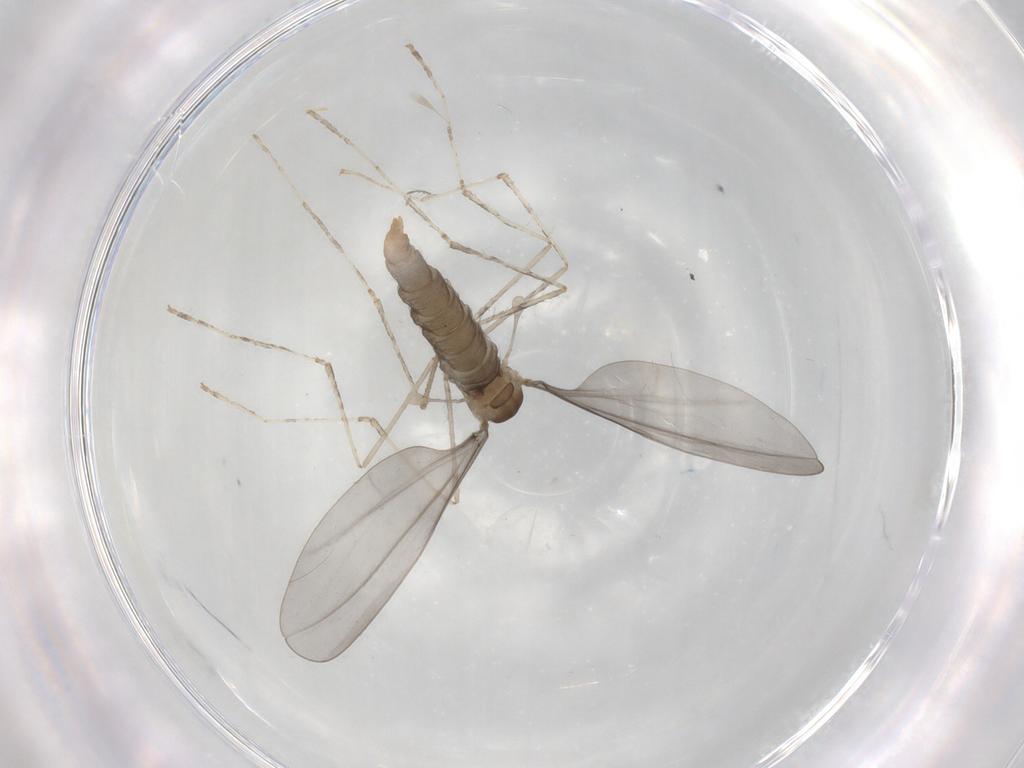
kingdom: Animalia
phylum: Arthropoda
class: Insecta
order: Diptera
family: Cecidomyiidae
